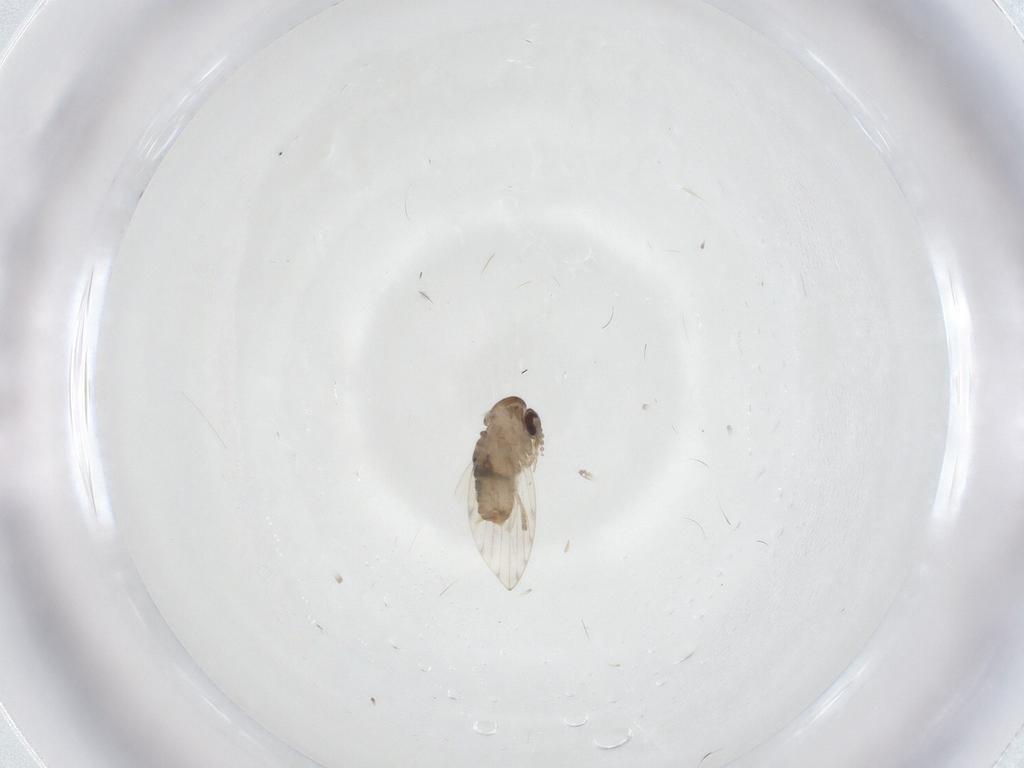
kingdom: Animalia
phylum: Arthropoda
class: Insecta
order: Diptera
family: Psychodidae
